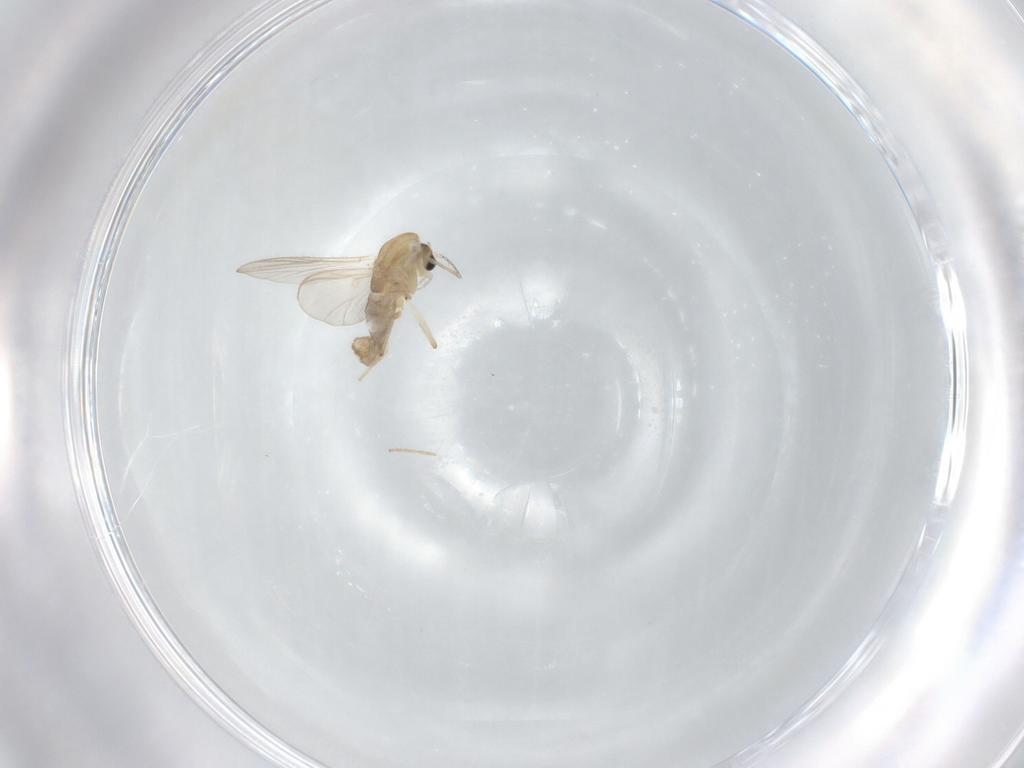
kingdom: Animalia
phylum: Arthropoda
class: Insecta
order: Diptera
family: Chironomidae
